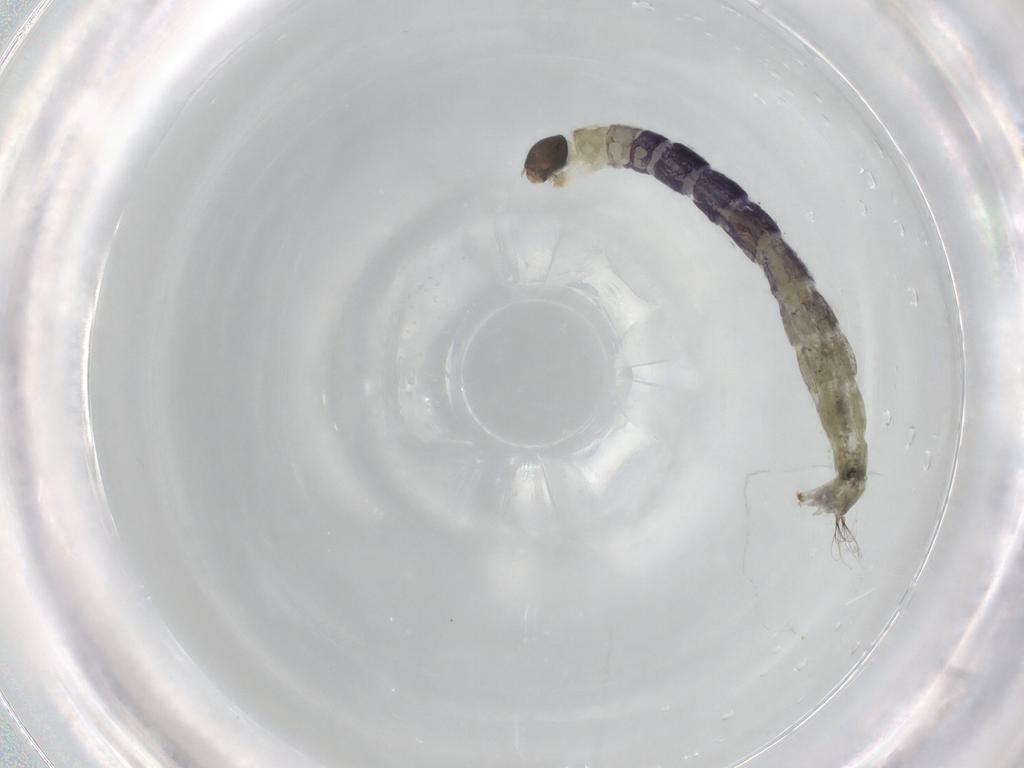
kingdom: Animalia
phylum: Arthropoda
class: Insecta
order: Diptera
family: Chironomidae
